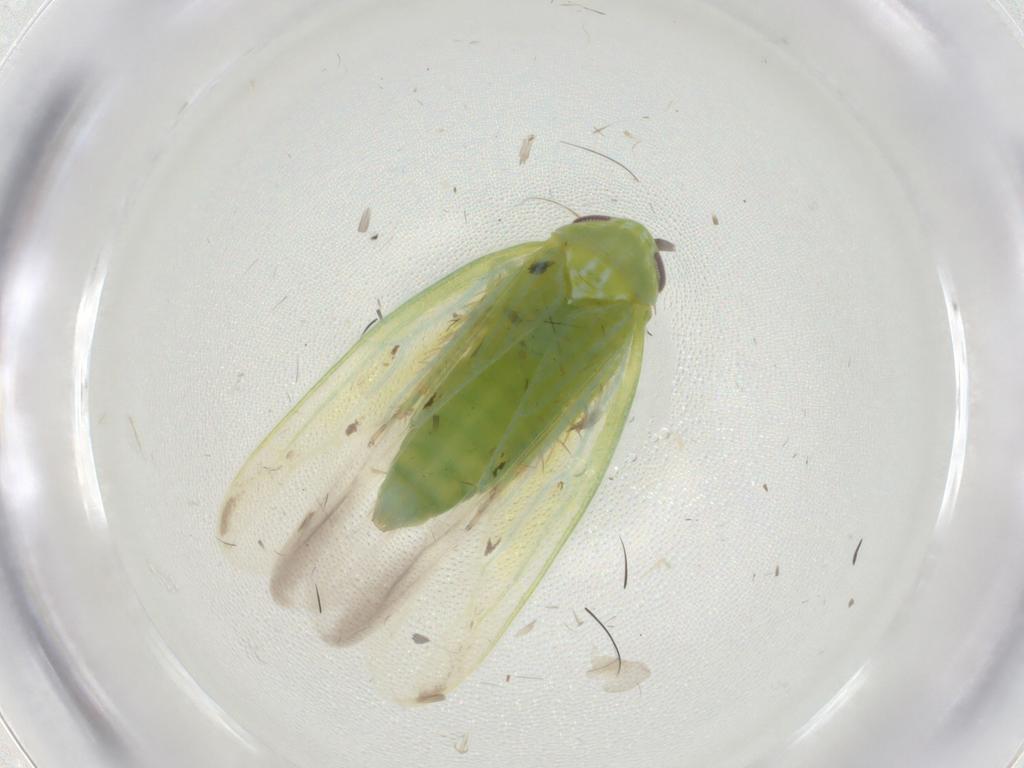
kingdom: Animalia
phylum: Arthropoda
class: Insecta
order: Hemiptera
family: Cicadellidae
